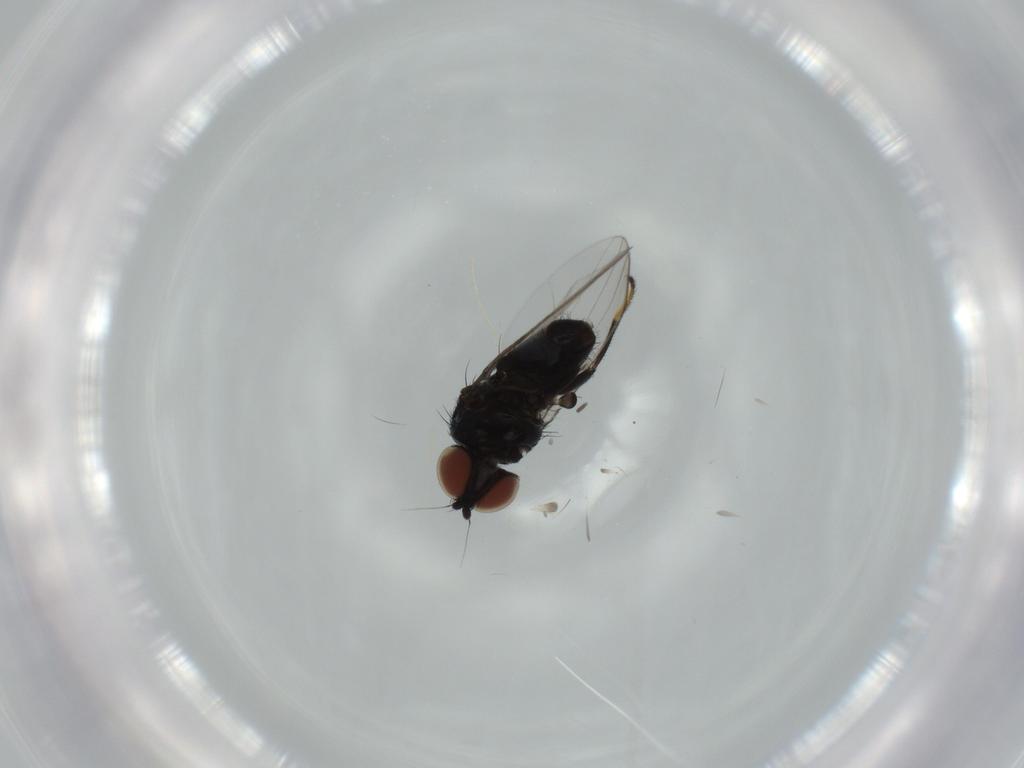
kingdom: Animalia
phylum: Arthropoda
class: Insecta
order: Diptera
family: Milichiidae
